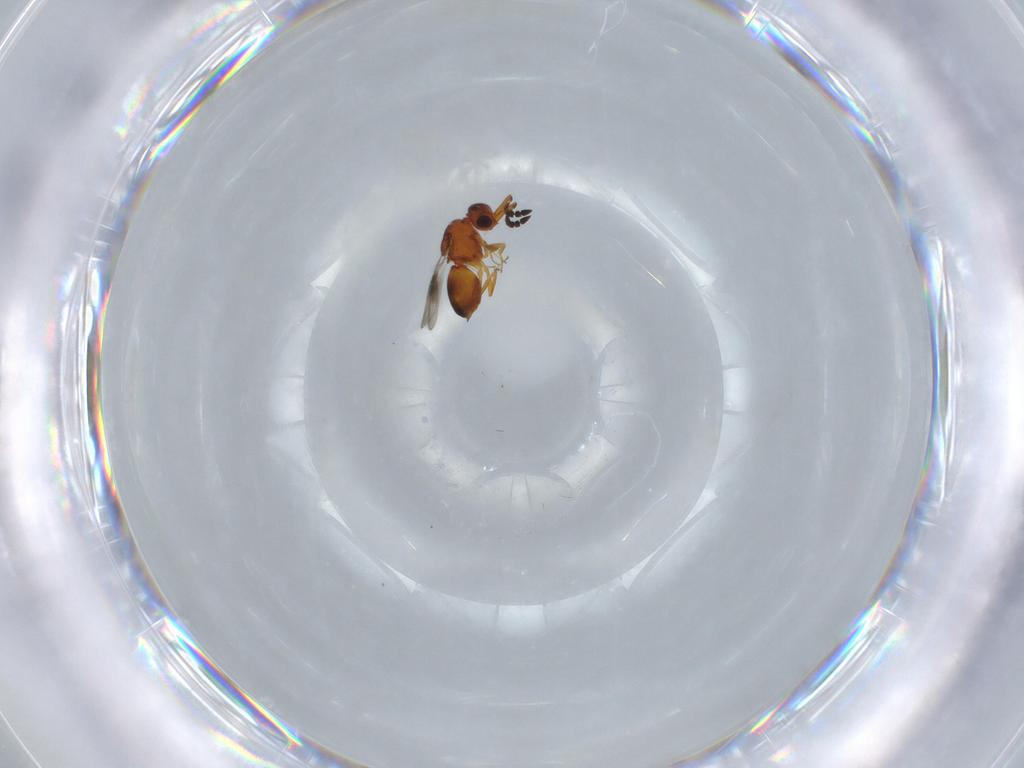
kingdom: Animalia
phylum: Arthropoda
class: Insecta
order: Hymenoptera
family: Ceraphronidae
